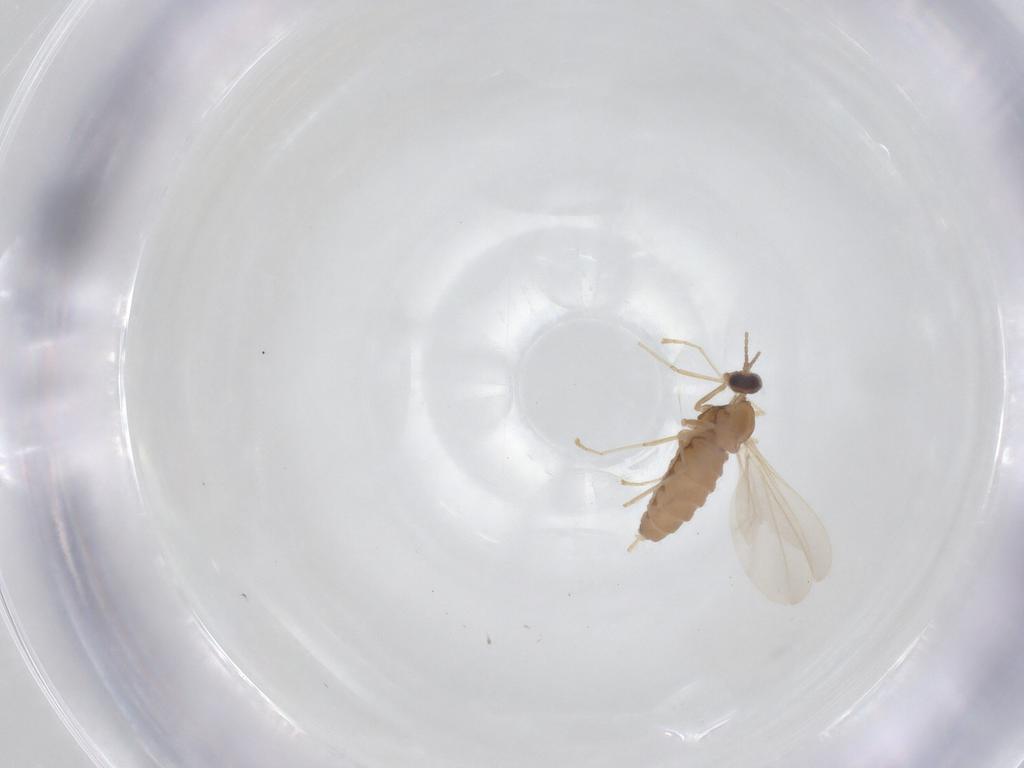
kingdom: Animalia
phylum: Arthropoda
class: Insecta
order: Diptera
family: Cecidomyiidae
